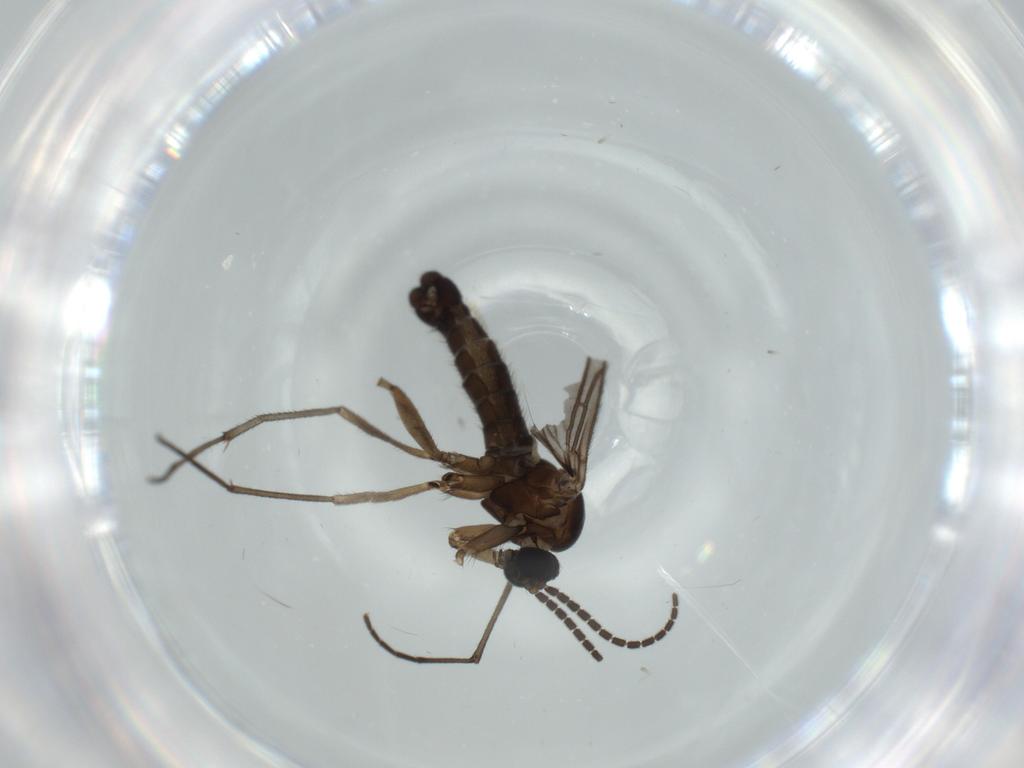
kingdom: Animalia
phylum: Arthropoda
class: Insecta
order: Diptera
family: Sciaridae
